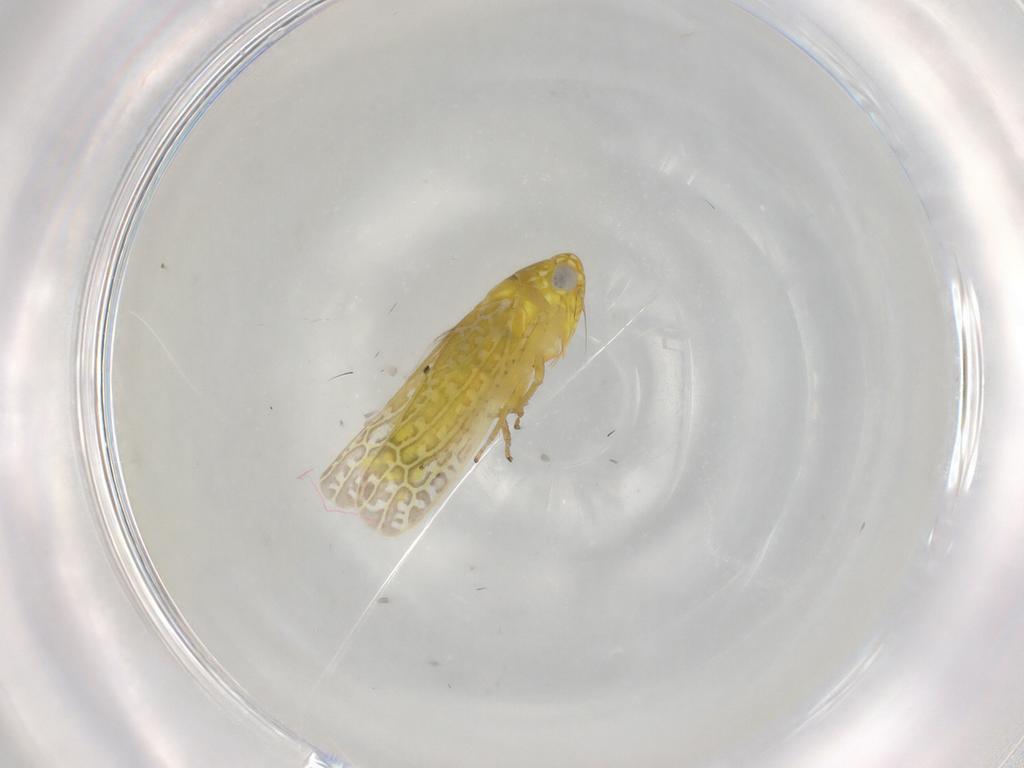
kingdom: Animalia
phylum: Arthropoda
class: Insecta
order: Hemiptera
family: Cicadellidae
